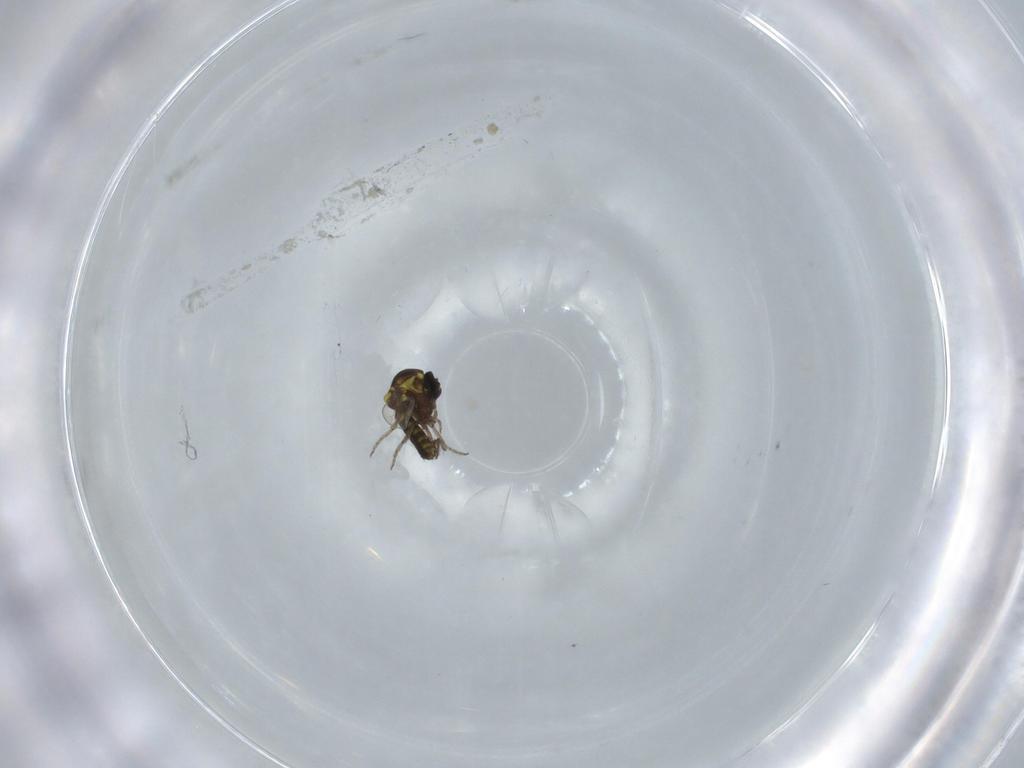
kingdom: Animalia
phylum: Arthropoda
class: Insecta
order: Diptera
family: Ceratopogonidae
